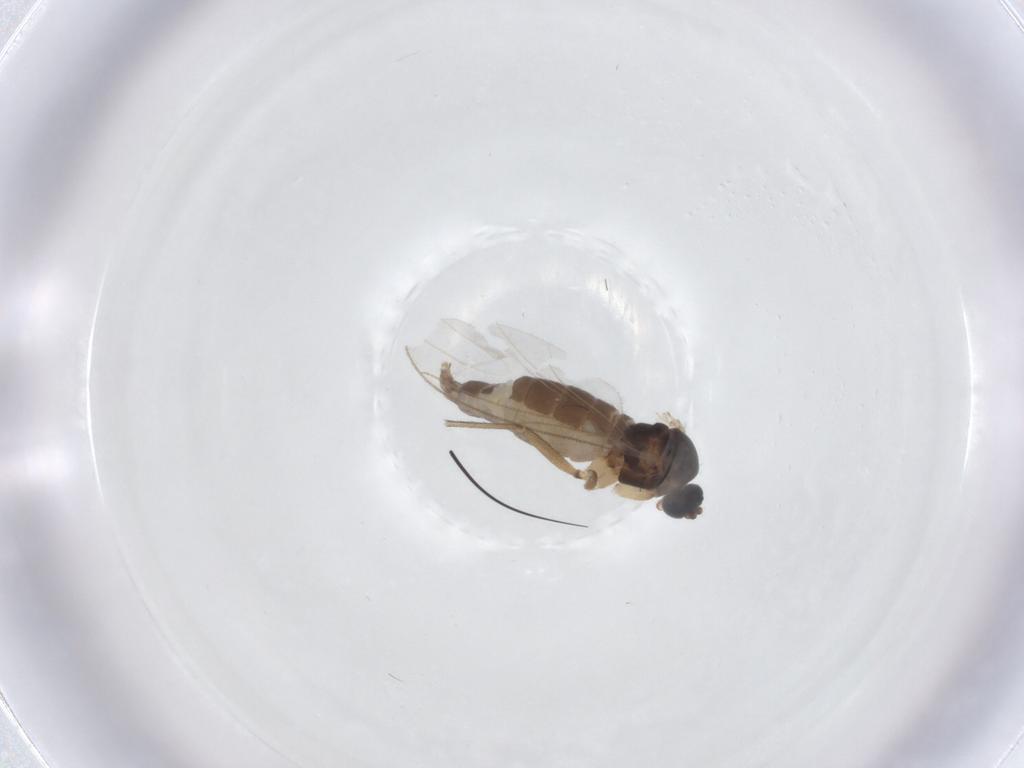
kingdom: Animalia
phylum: Arthropoda
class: Insecta
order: Diptera
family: Sciaridae
